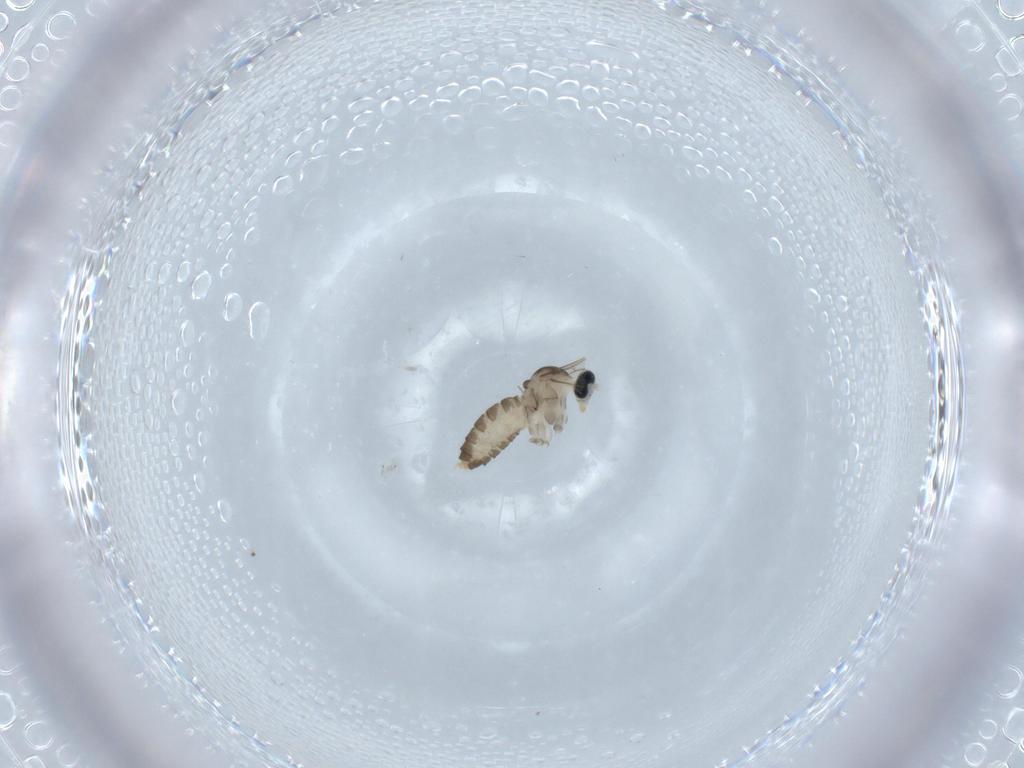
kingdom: Animalia
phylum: Arthropoda
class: Insecta
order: Diptera
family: Cecidomyiidae
